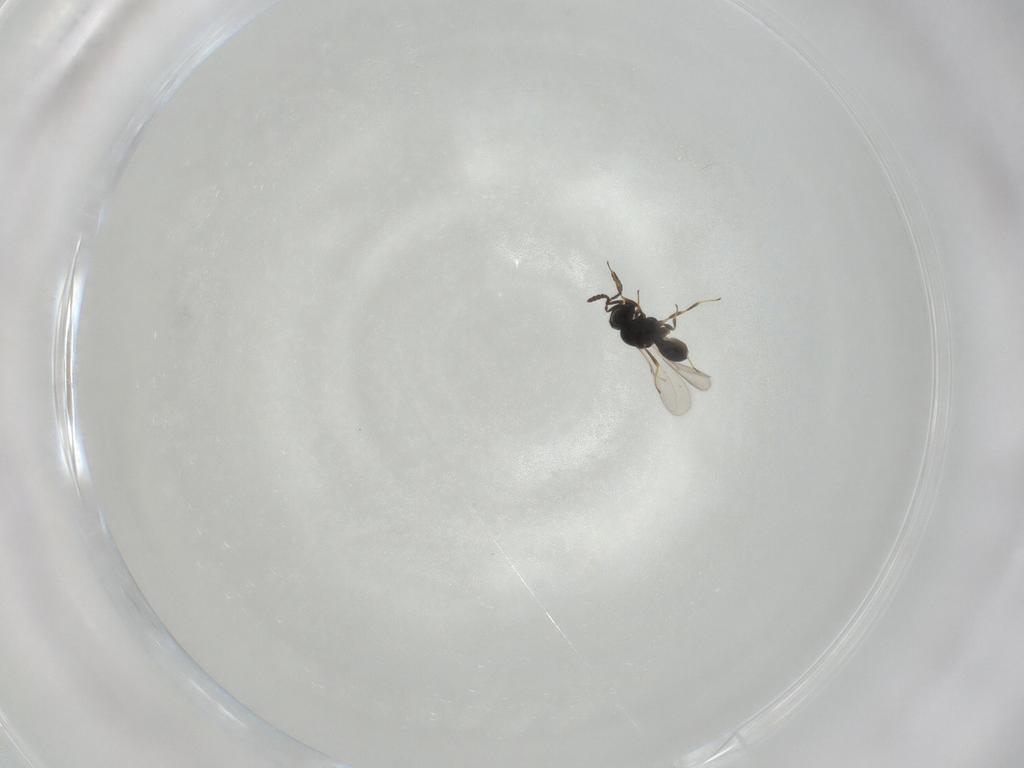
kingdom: Animalia
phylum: Arthropoda
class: Insecta
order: Hymenoptera
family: Scelionidae
